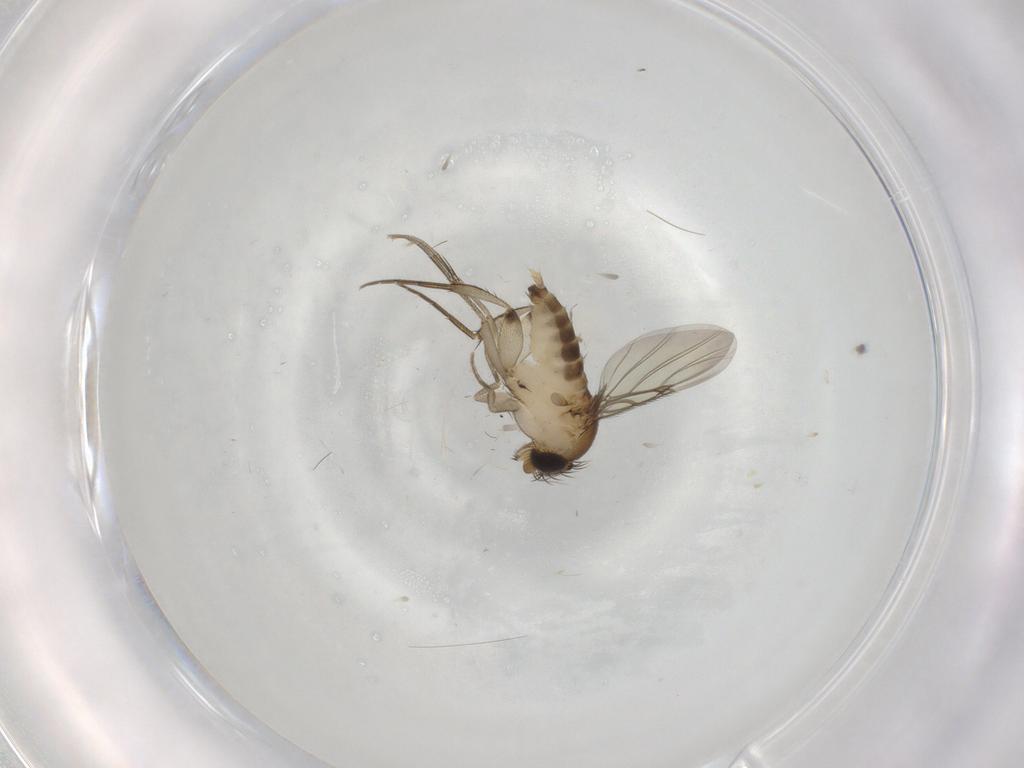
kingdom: Animalia
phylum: Arthropoda
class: Insecta
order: Diptera
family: Phoridae
